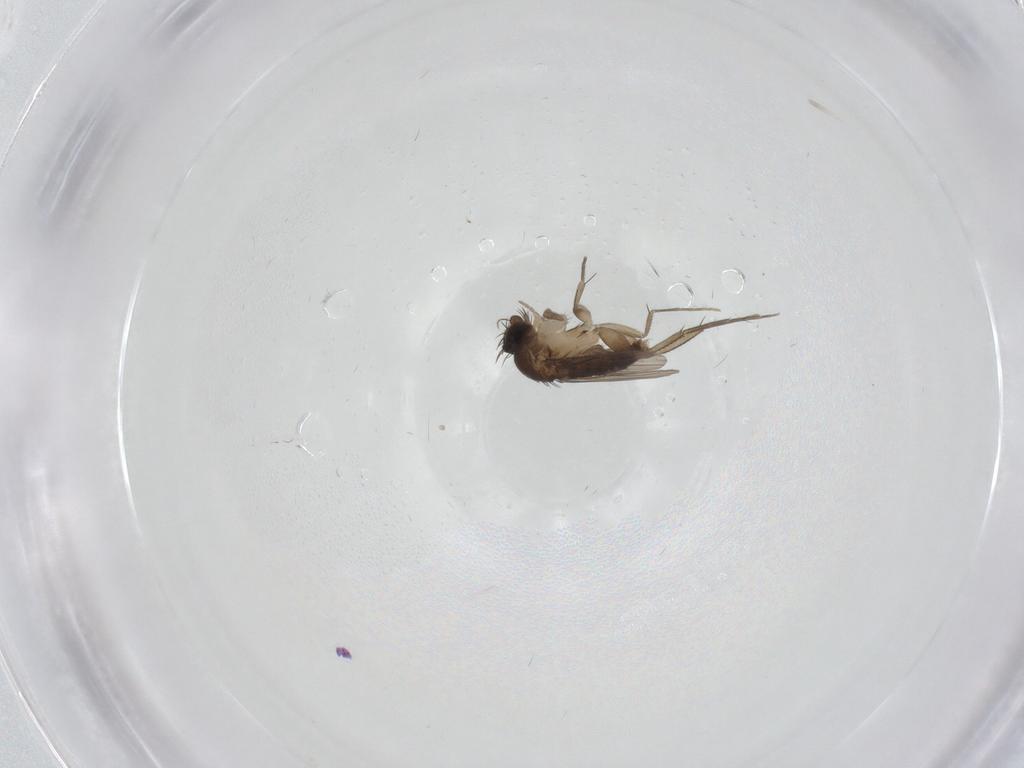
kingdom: Animalia
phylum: Arthropoda
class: Insecta
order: Diptera
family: Phoridae
